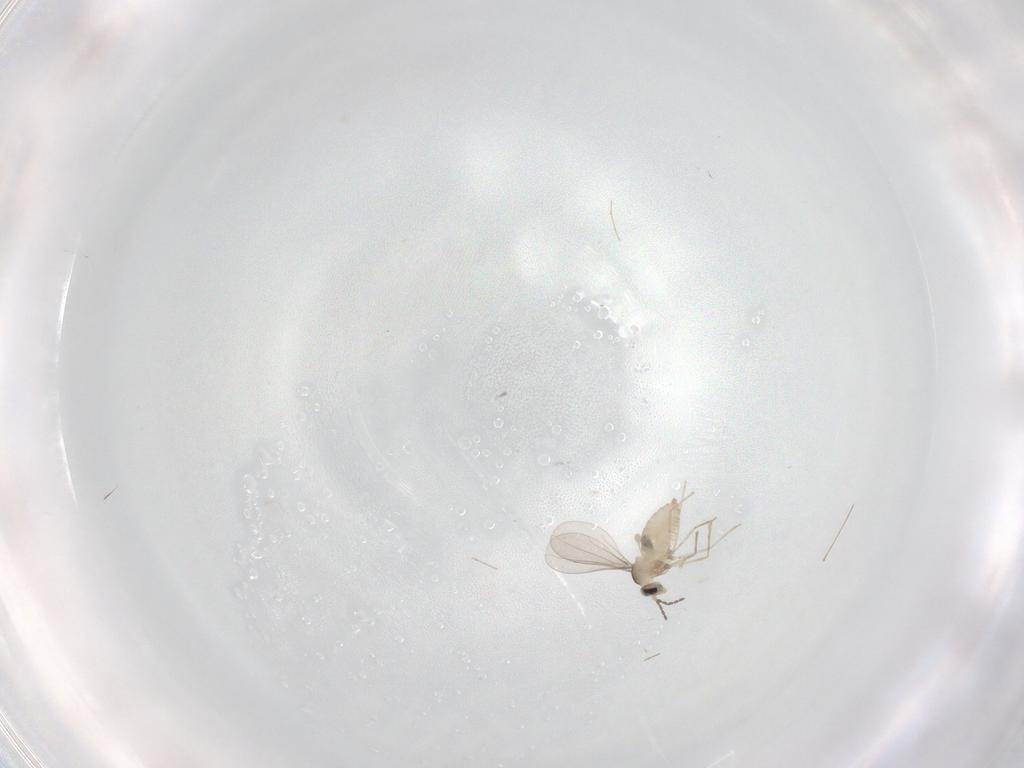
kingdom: Animalia
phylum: Arthropoda
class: Insecta
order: Diptera
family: Cecidomyiidae
